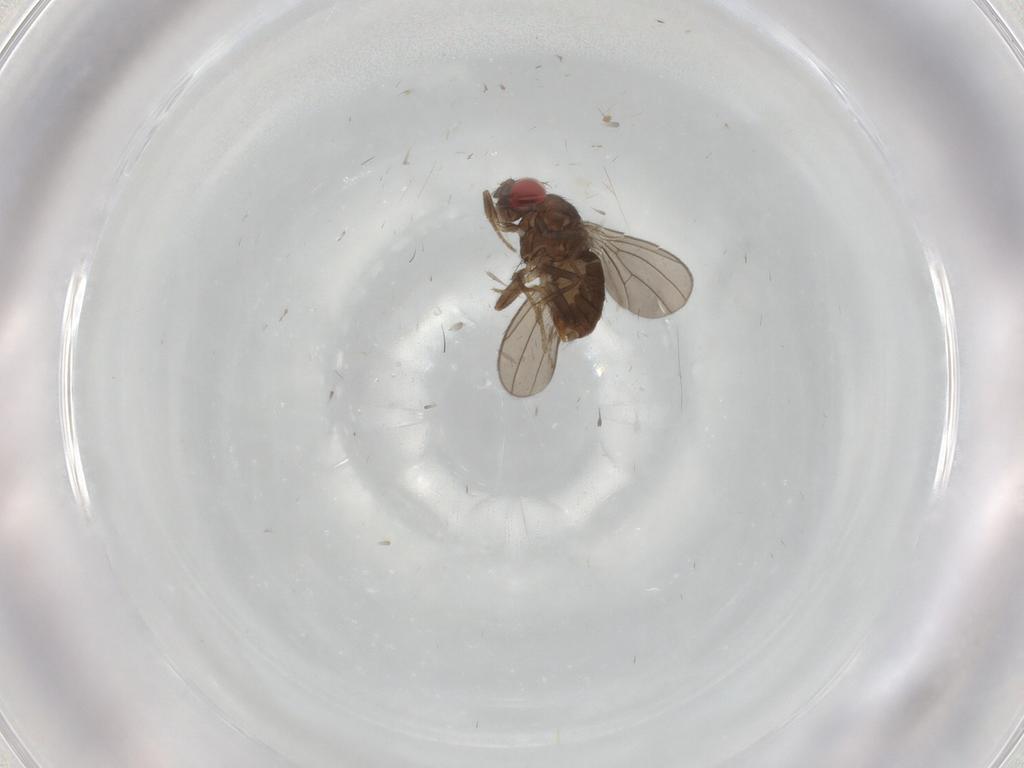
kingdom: Animalia
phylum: Arthropoda
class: Insecta
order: Diptera
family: Drosophilidae
